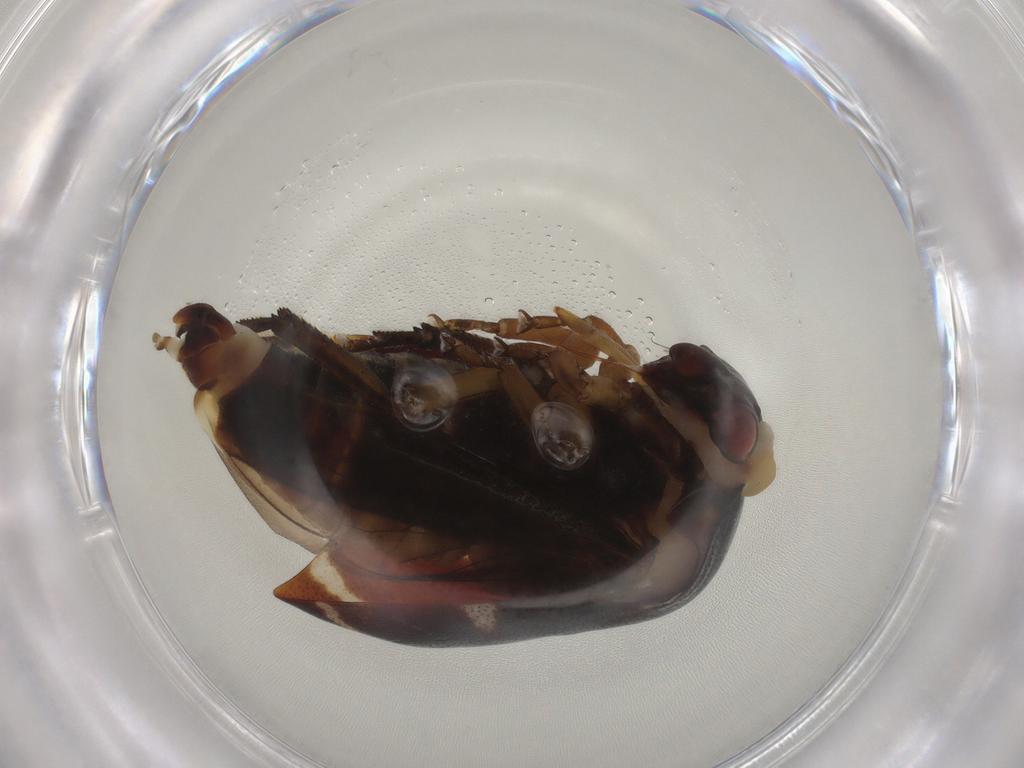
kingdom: Animalia
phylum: Arthropoda
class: Insecta
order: Hemiptera
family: Membracidae
